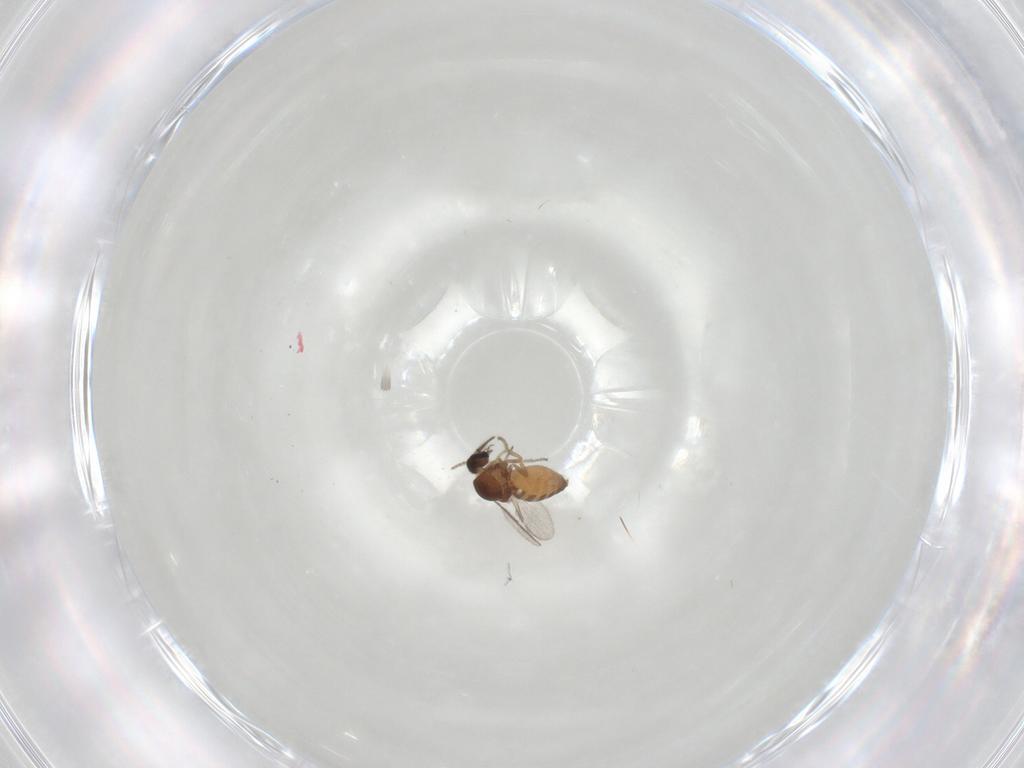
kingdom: Animalia
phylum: Arthropoda
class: Insecta
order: Diptera
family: Ceratopogonidae
